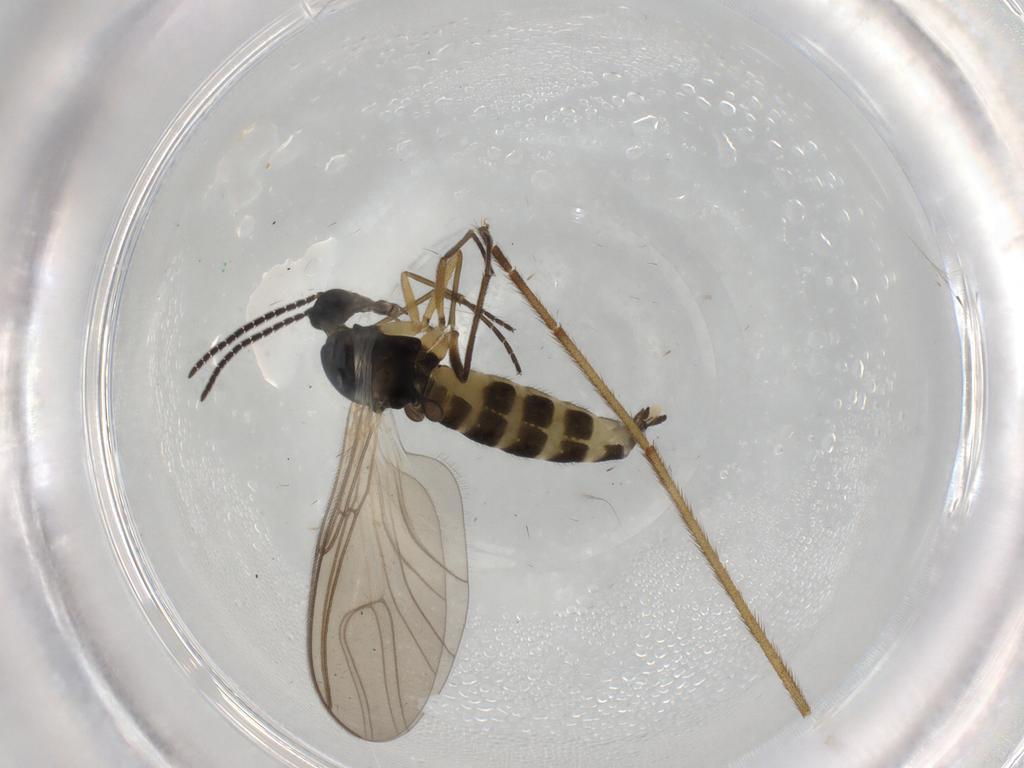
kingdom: Animalia
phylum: Arthropoda
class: Insecta
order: Diptera
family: Sciaridae
